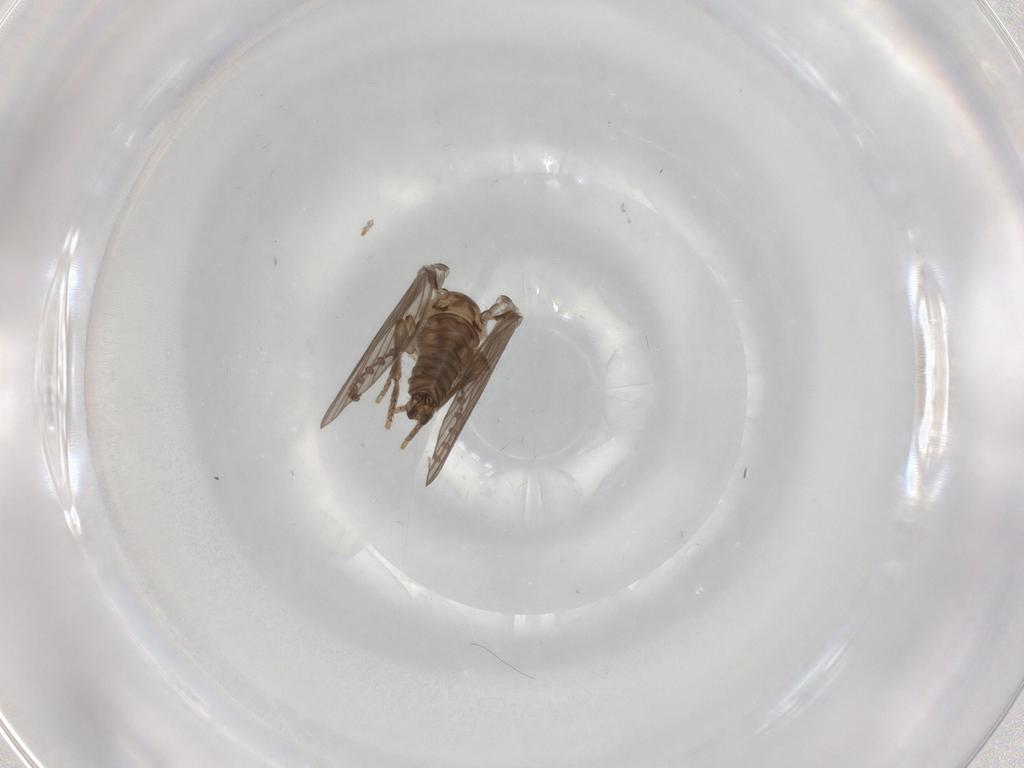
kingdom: Animalia
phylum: Arthropoda
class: Insecta
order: Diptera
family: Psychodidae
